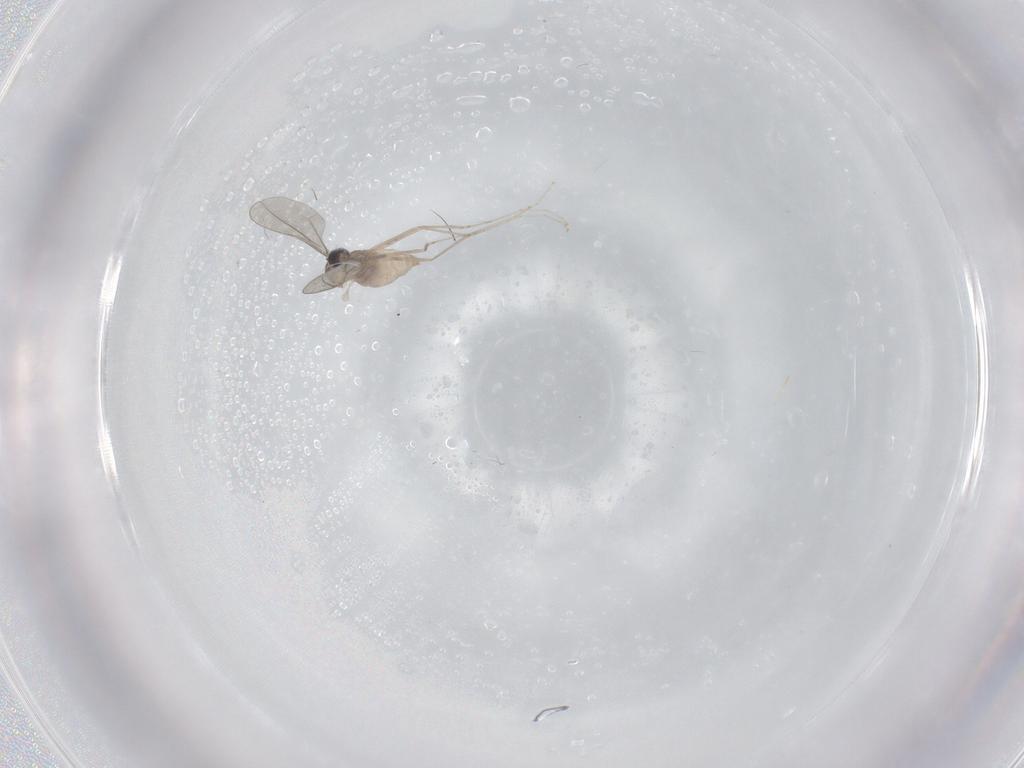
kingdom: Animalia
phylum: Arthropoda
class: Insecta
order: Diptera
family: Cecidomyiidae
